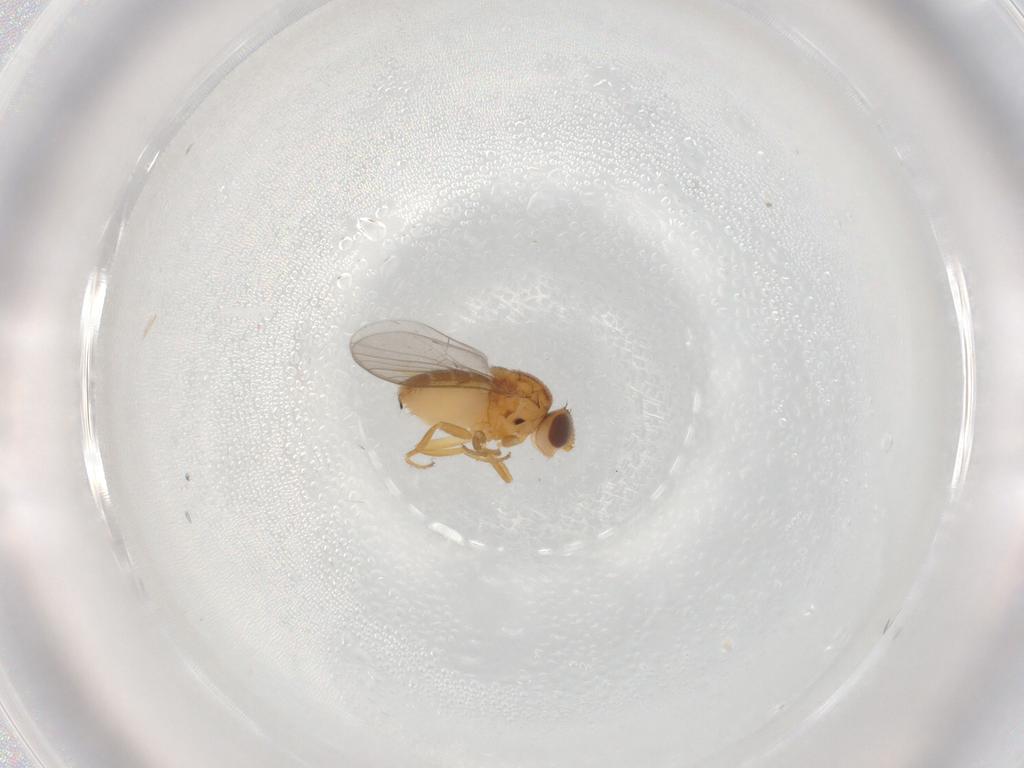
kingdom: Animalia
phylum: Arthropoda
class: Insecta
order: Diptera
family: Chloropidae
